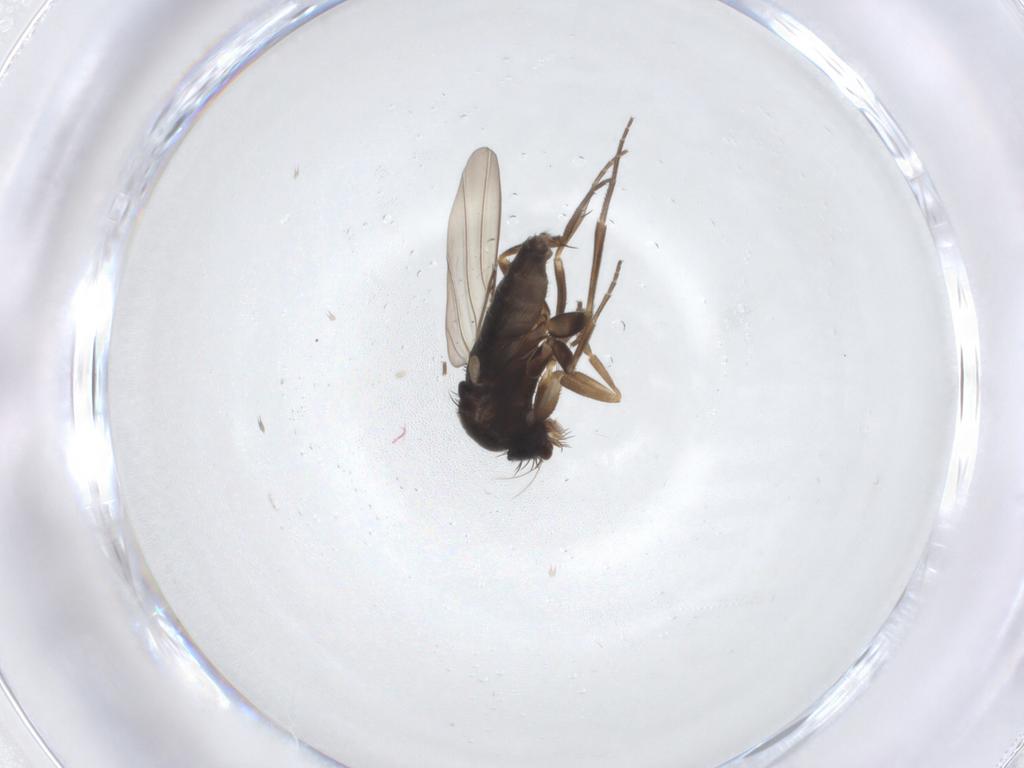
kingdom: Animalia
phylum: Arthropoda
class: Insecta
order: Diptera
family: Phoridae
